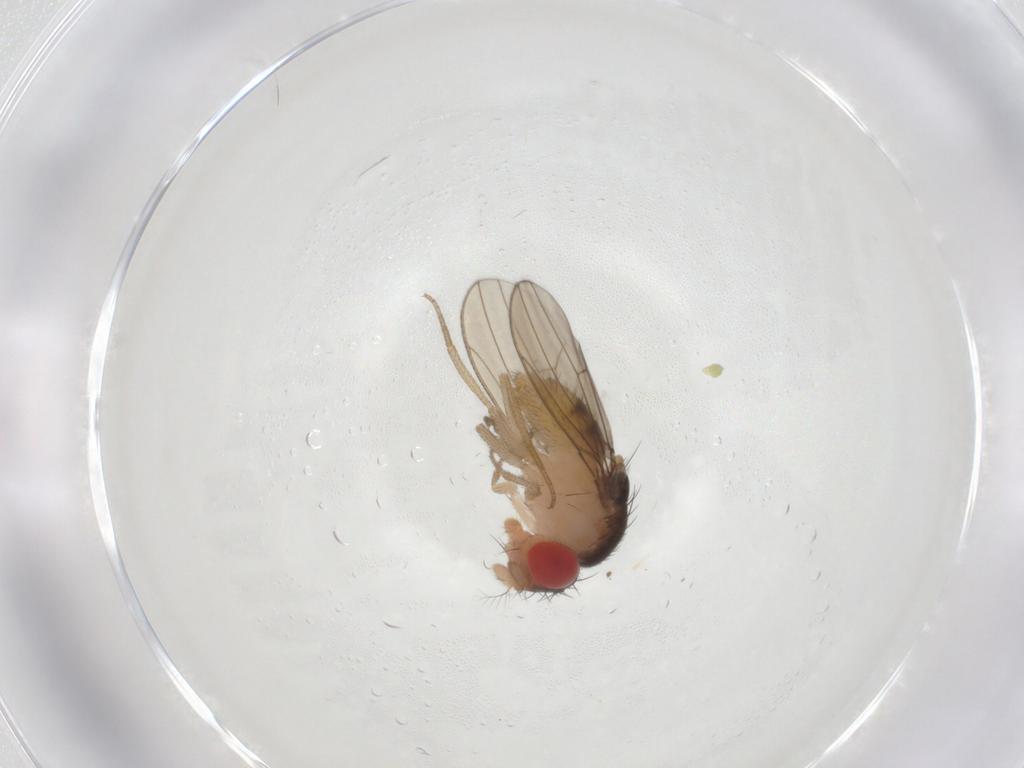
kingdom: Animalia
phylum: Arthropoda
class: Insecta
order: Diptera
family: Drosophilidae
